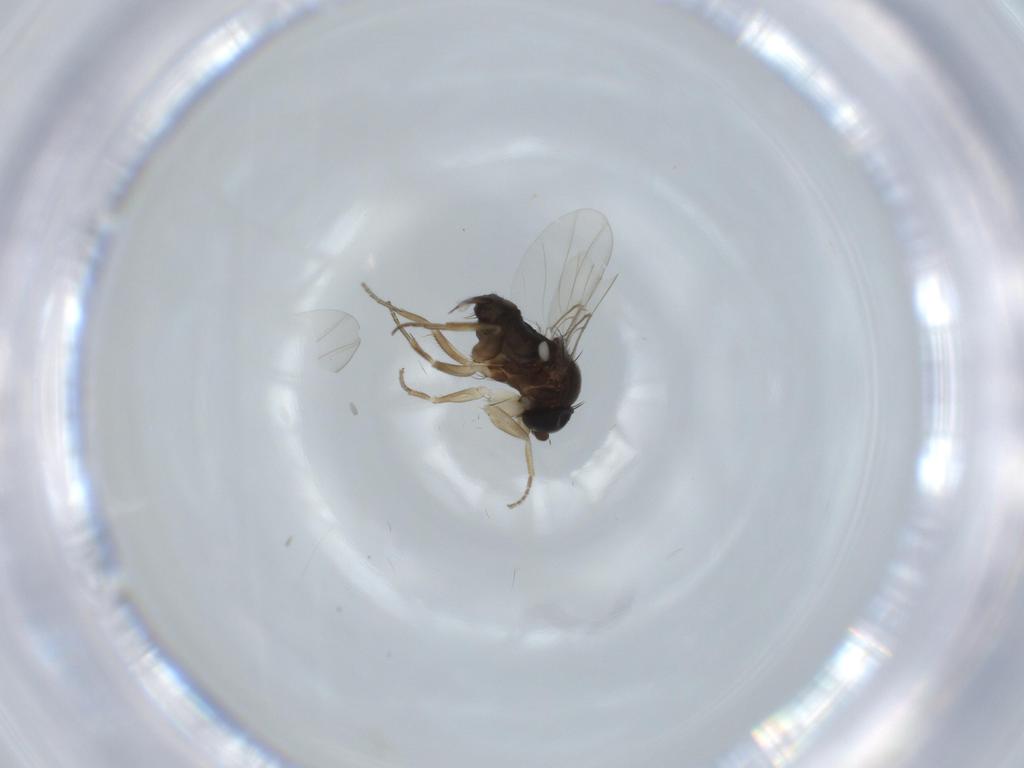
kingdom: Animalia
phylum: Arthropoda
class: Insecta
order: Diptera
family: Phoridae
